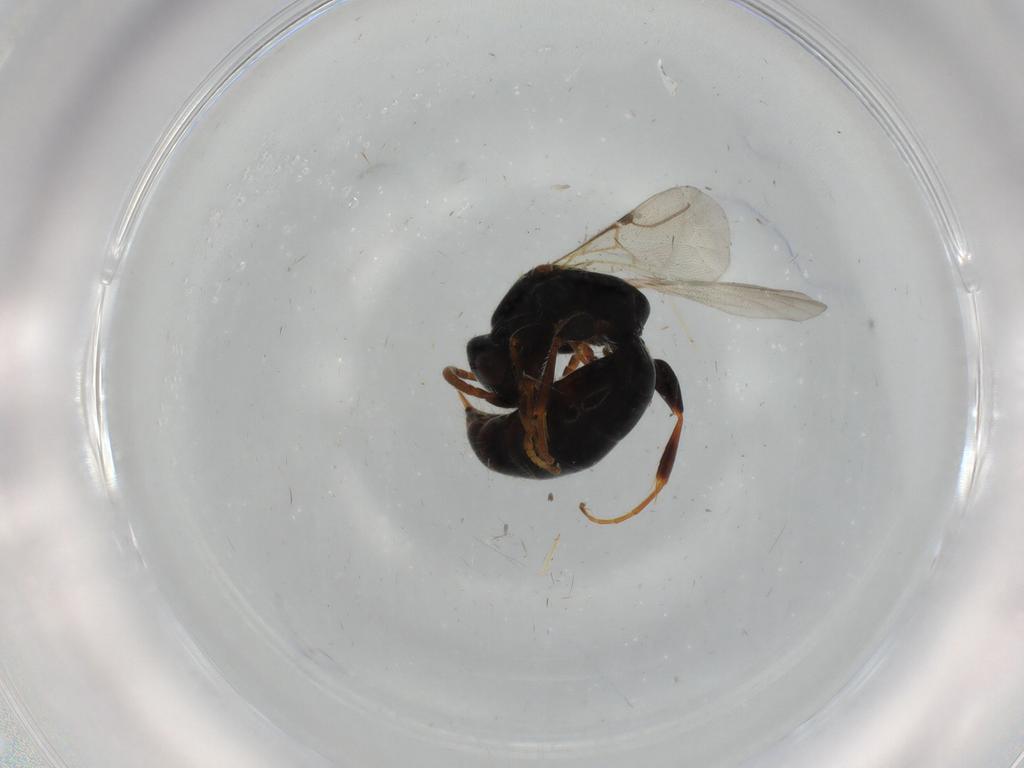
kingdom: Animalia
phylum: Arthropoda
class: Insecta
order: Hymenoptera
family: Bethylidae
